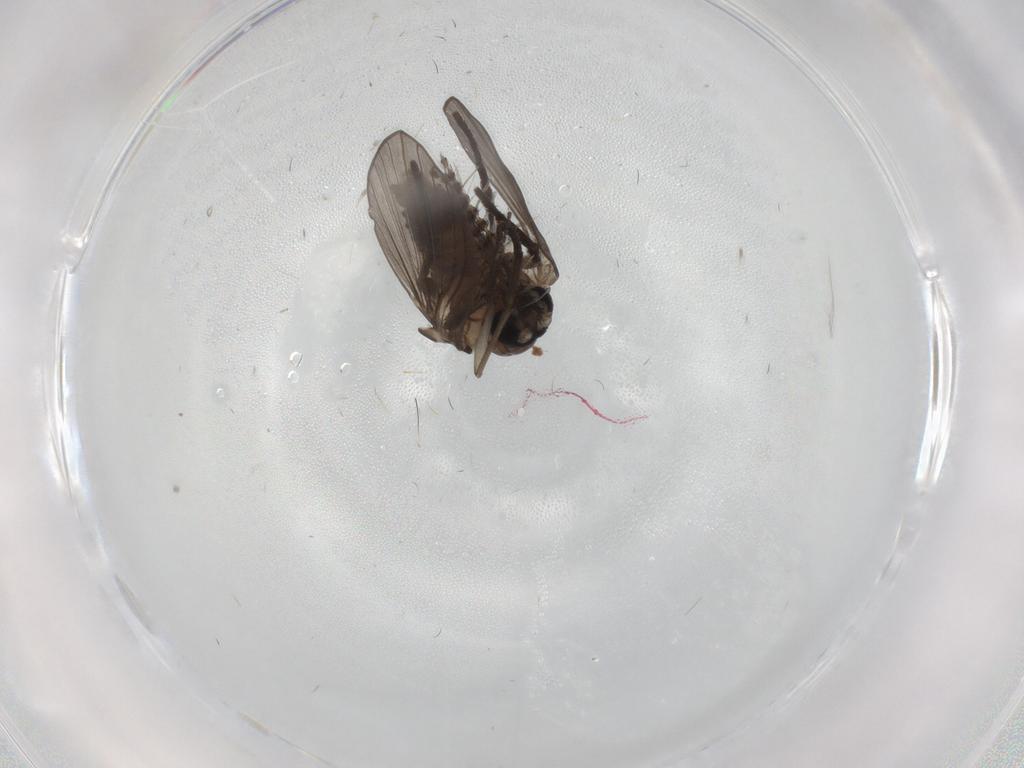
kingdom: Animalia
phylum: Arthropoda
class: Insecta
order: Diptera
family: Psychodidae
